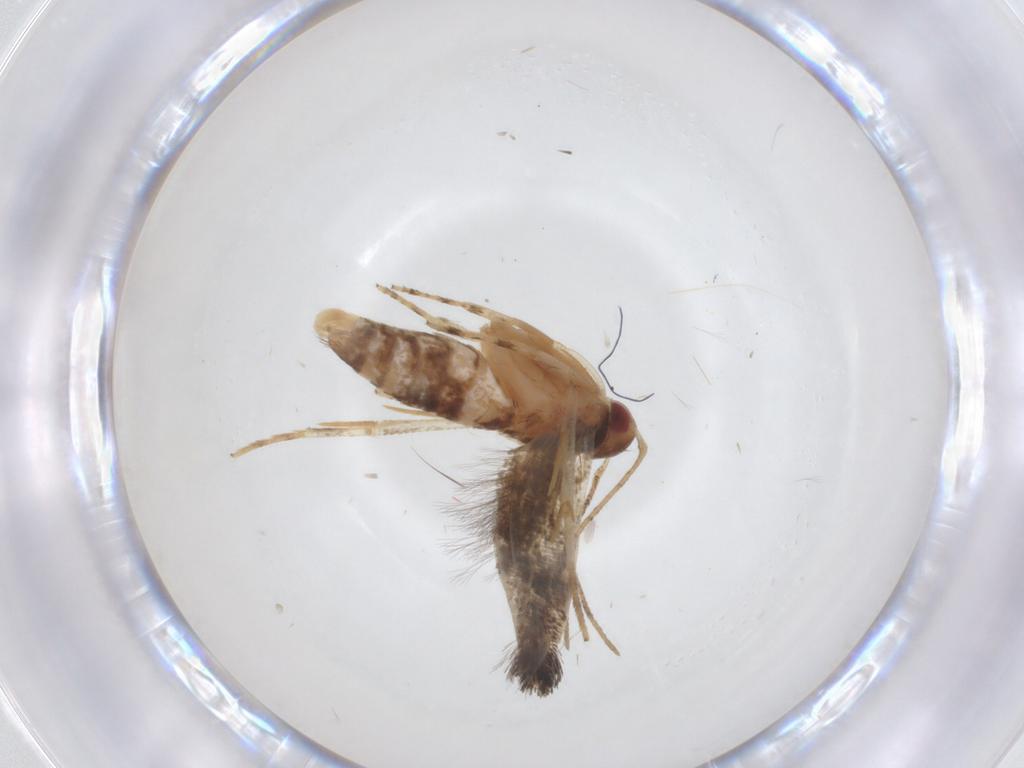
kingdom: Animalia
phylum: Arthropoda
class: Insecta
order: Lepidoptera
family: Cosmopterigidae
